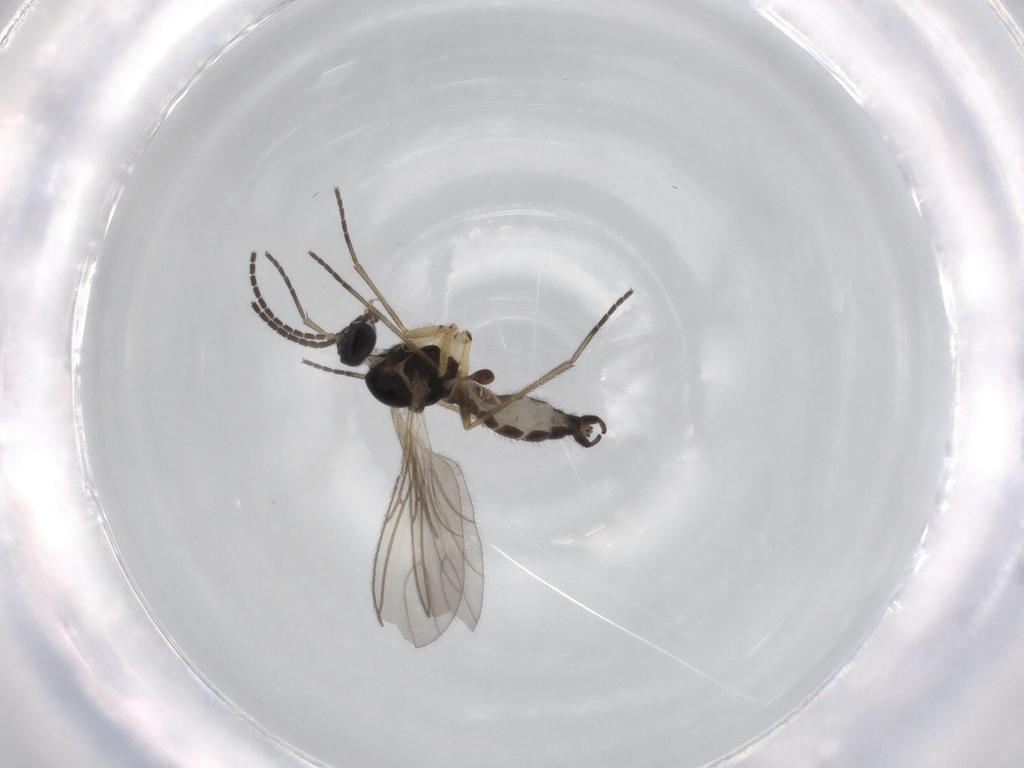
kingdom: Animalia
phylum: Arthropoda
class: Insecta
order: Diptera
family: Sciaridae
